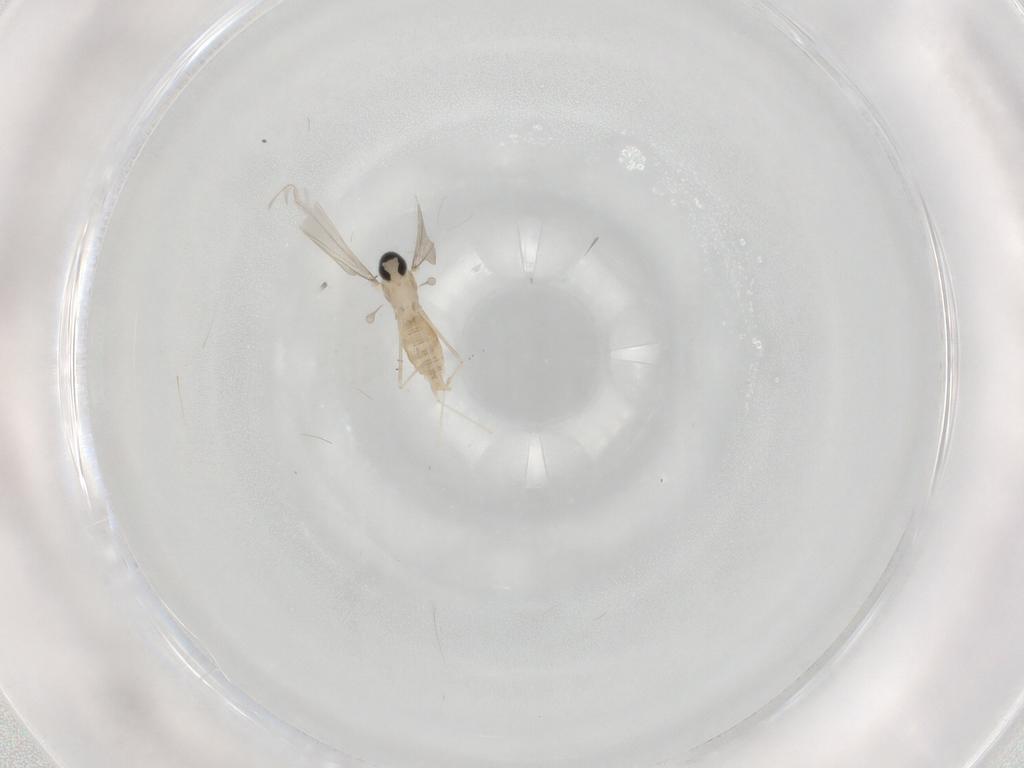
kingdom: Animalia
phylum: Arthropoda
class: Insecta
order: Diptera
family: Cecidomyiidae
